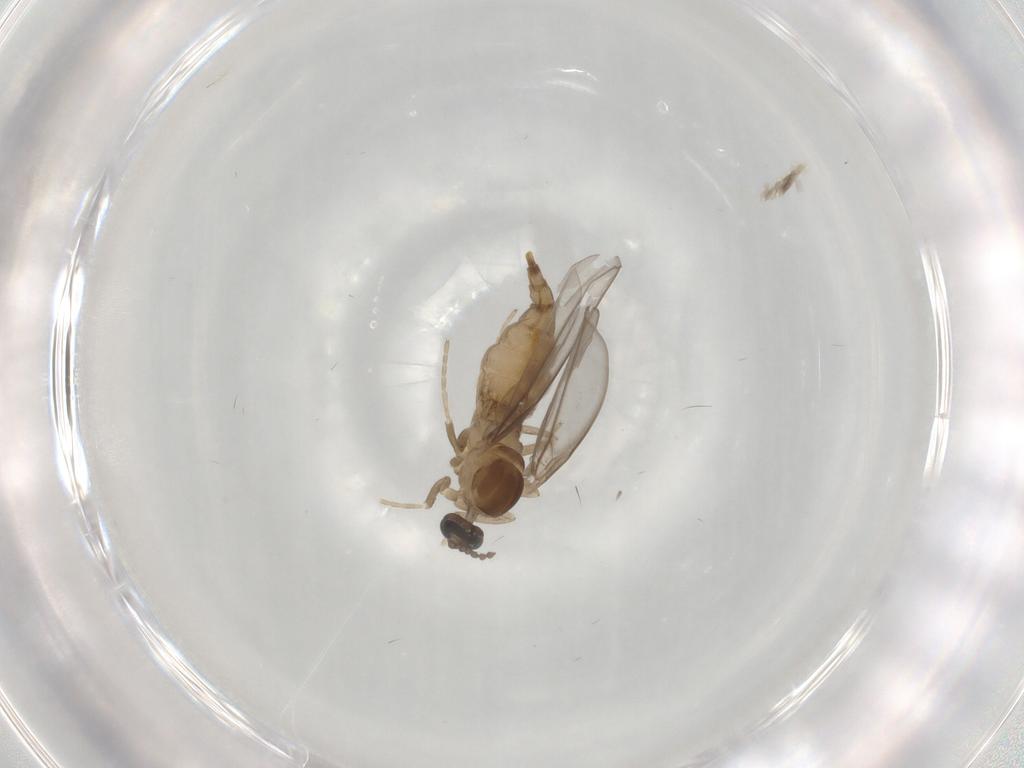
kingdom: Animalia
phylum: Arthropoda
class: Insecta
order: Diptera
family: Cecidomyiidae
